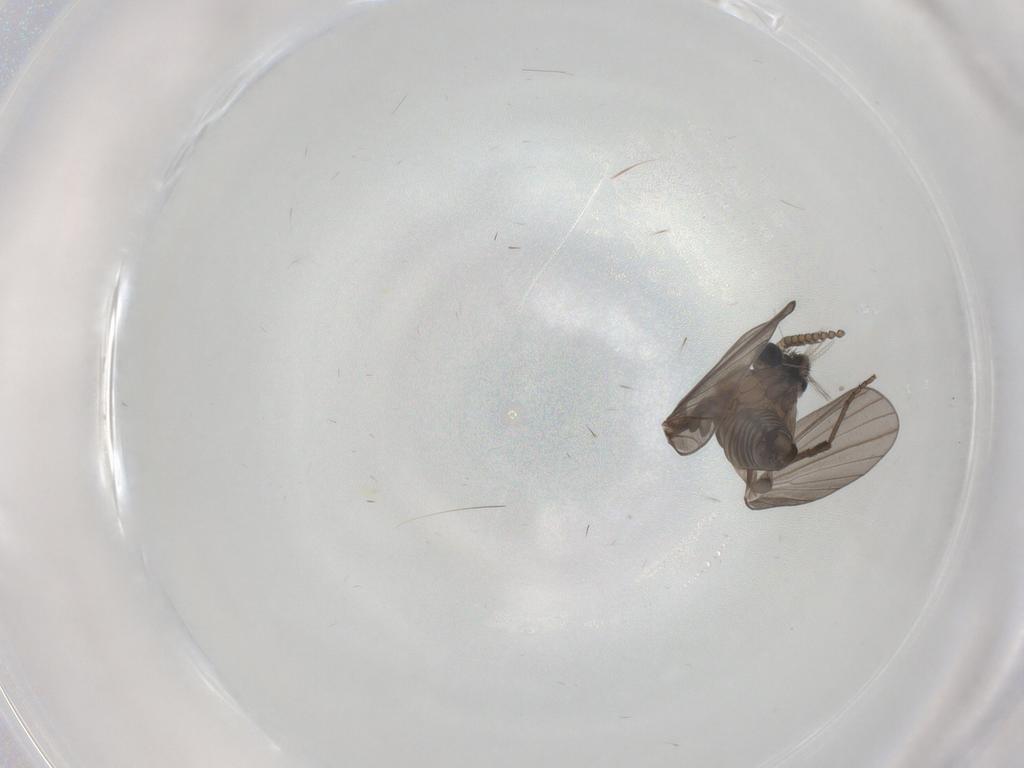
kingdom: Animalia
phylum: Arthropoda
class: Insecta
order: Diptera
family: Phoridae
